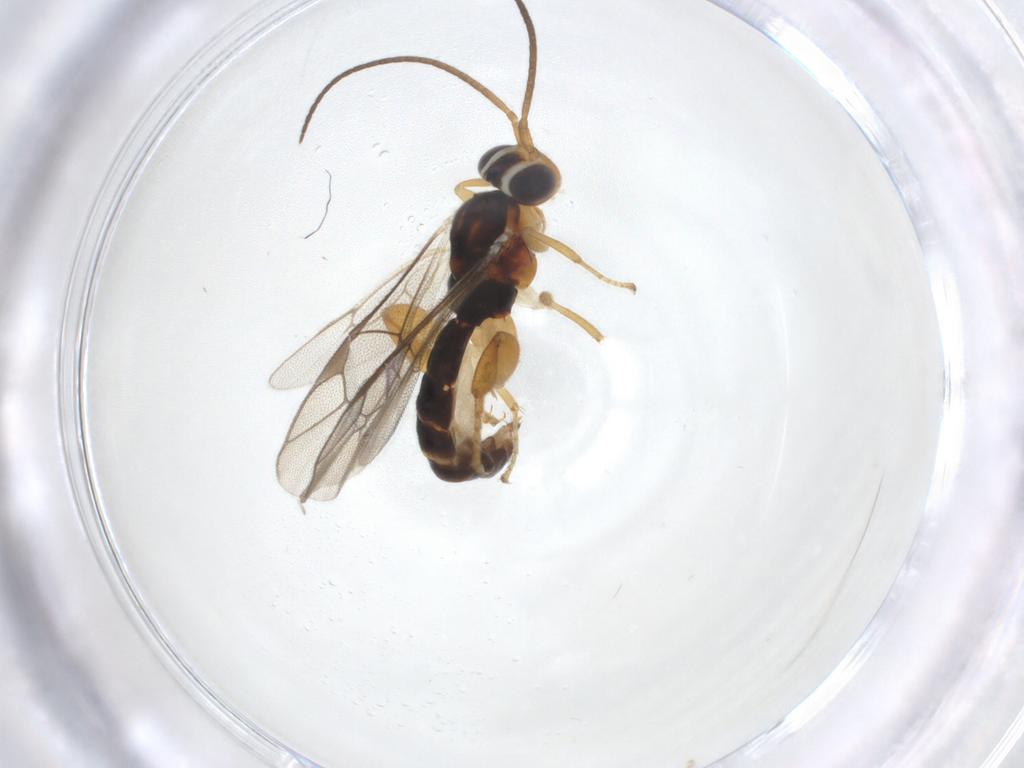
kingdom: Animalia
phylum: Arthropoda
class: Insecta
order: Hymenoptera
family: Ichneumonidae
